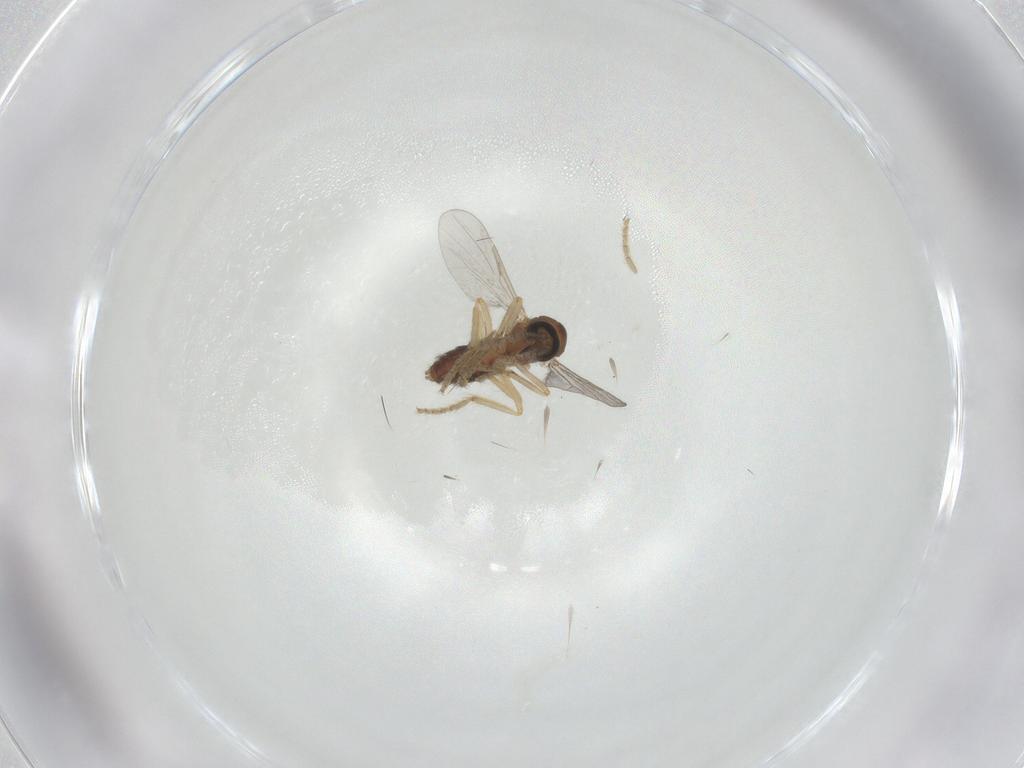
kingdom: Animalia
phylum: Arthropoda
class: Insecta
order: Diptera
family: Ceratopogonidae
